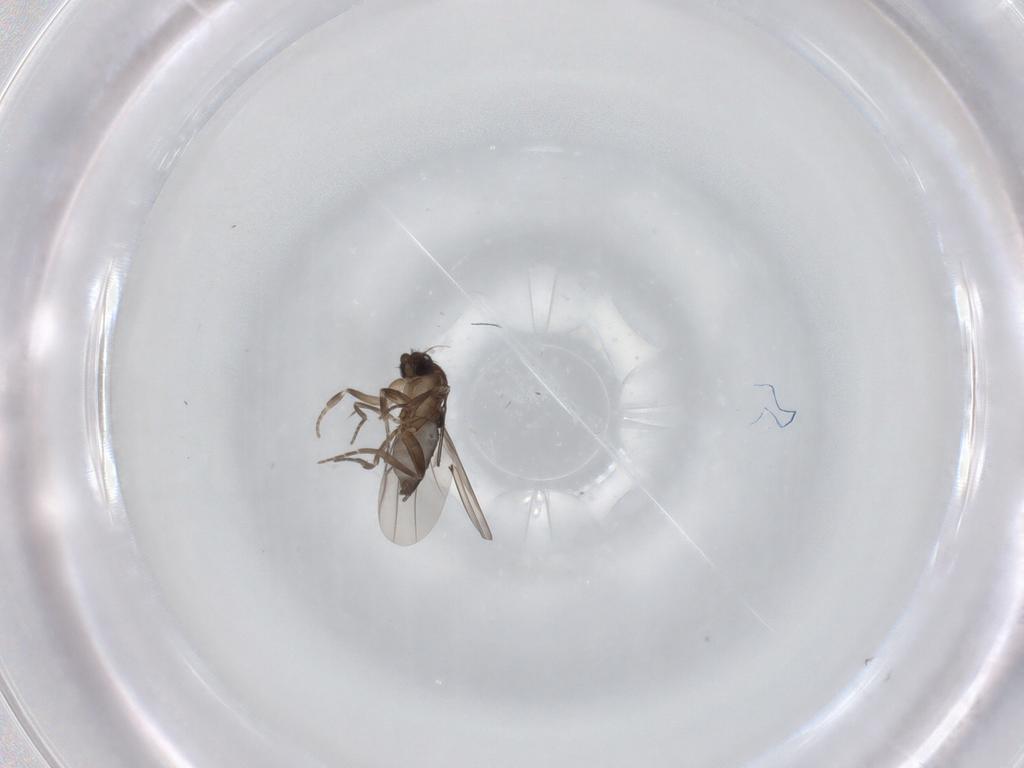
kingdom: Animalia
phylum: Arthropoda
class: Insecta
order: Diptera
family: Phoridae
